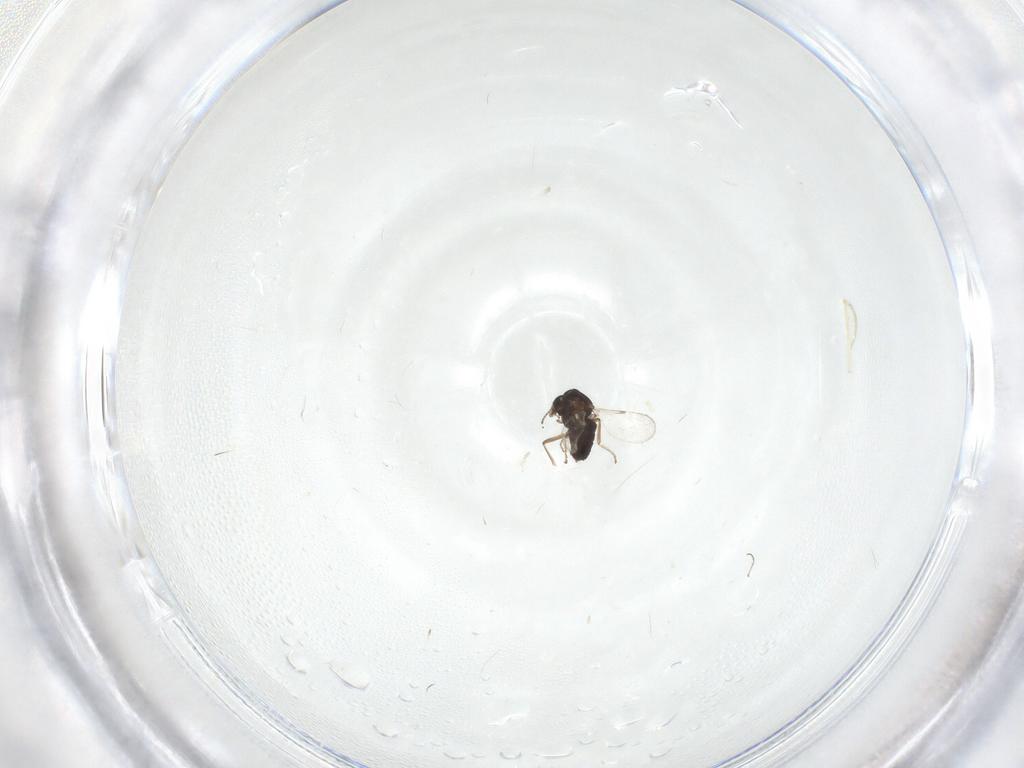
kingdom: Animalia
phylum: Arthropoda
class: Insecta
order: Diptera
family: Ceratopogonidae
